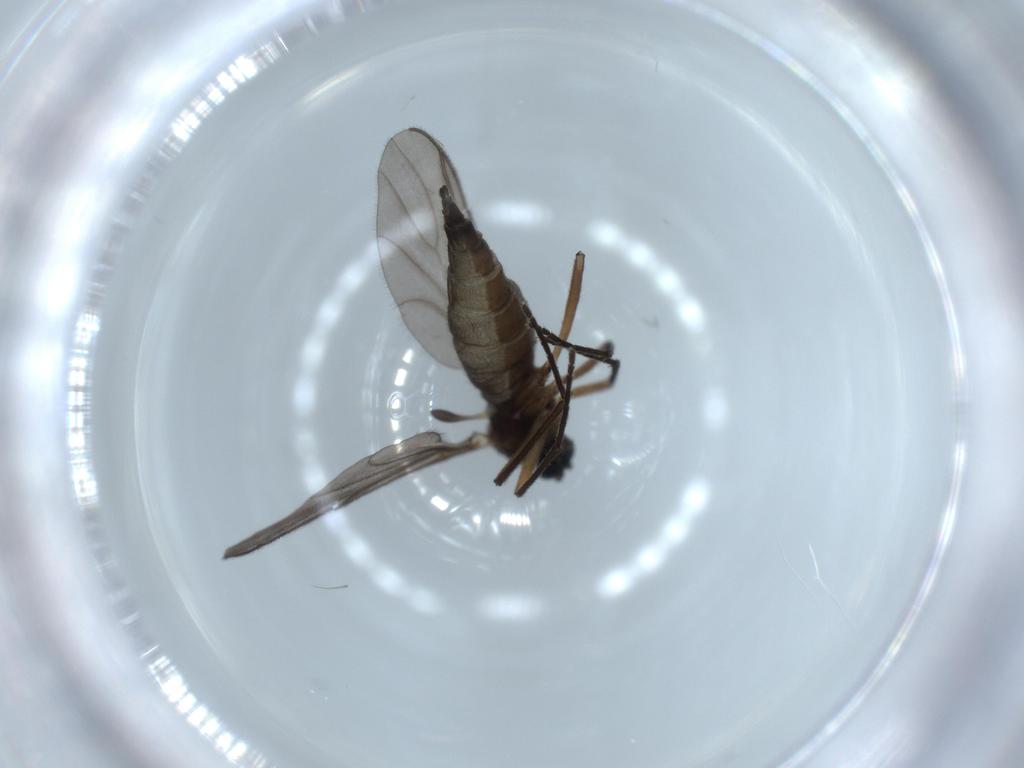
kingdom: Animalia
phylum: Arthropoda
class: Insecta
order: Diptera
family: Sciaridae
